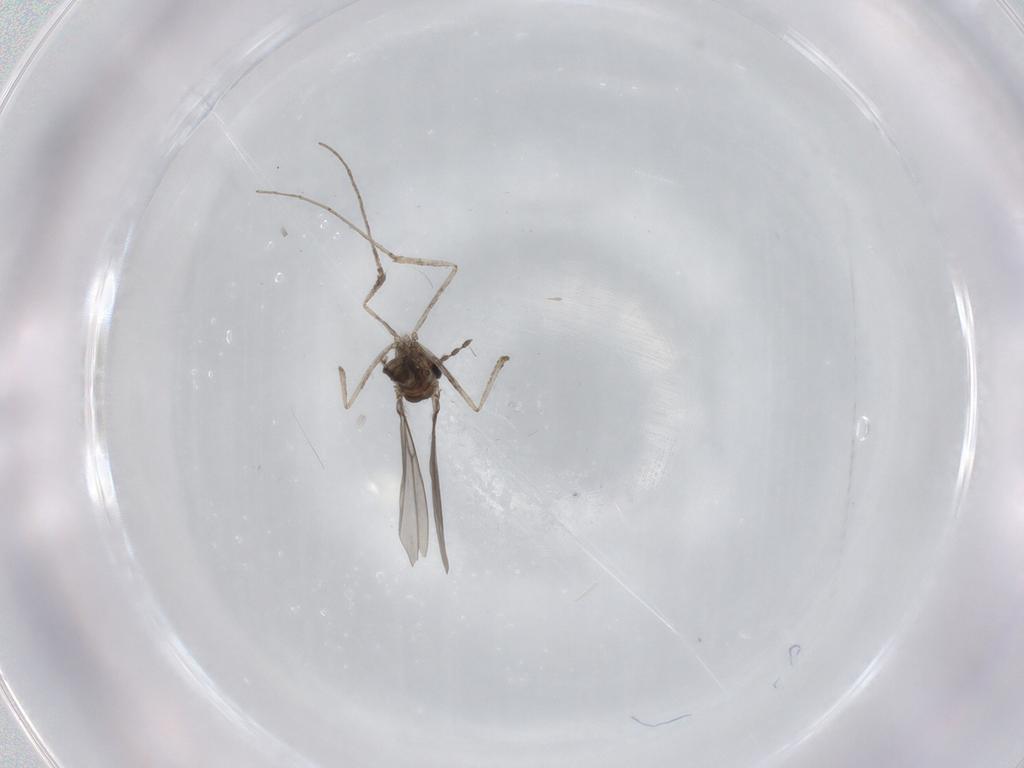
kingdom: Animalia
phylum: Arthropoda
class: Insecta
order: Diptera
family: Cecidomyiidae
